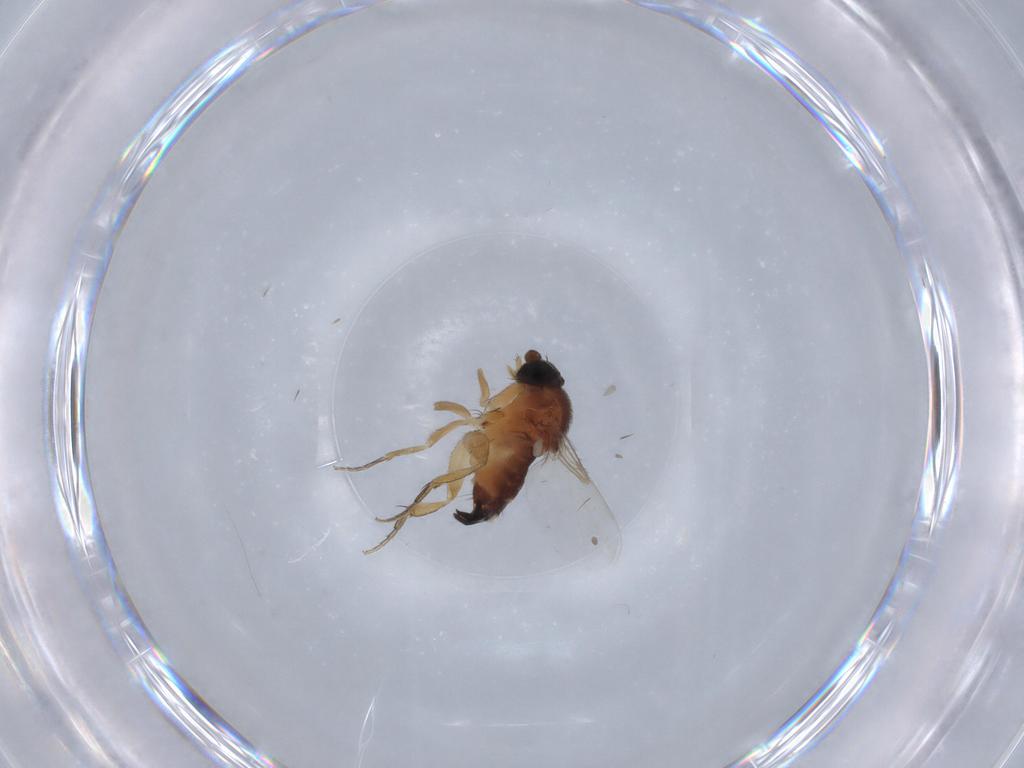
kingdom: Animalia
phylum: Arthropoda
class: Insecta
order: Diptera
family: Phoridae
